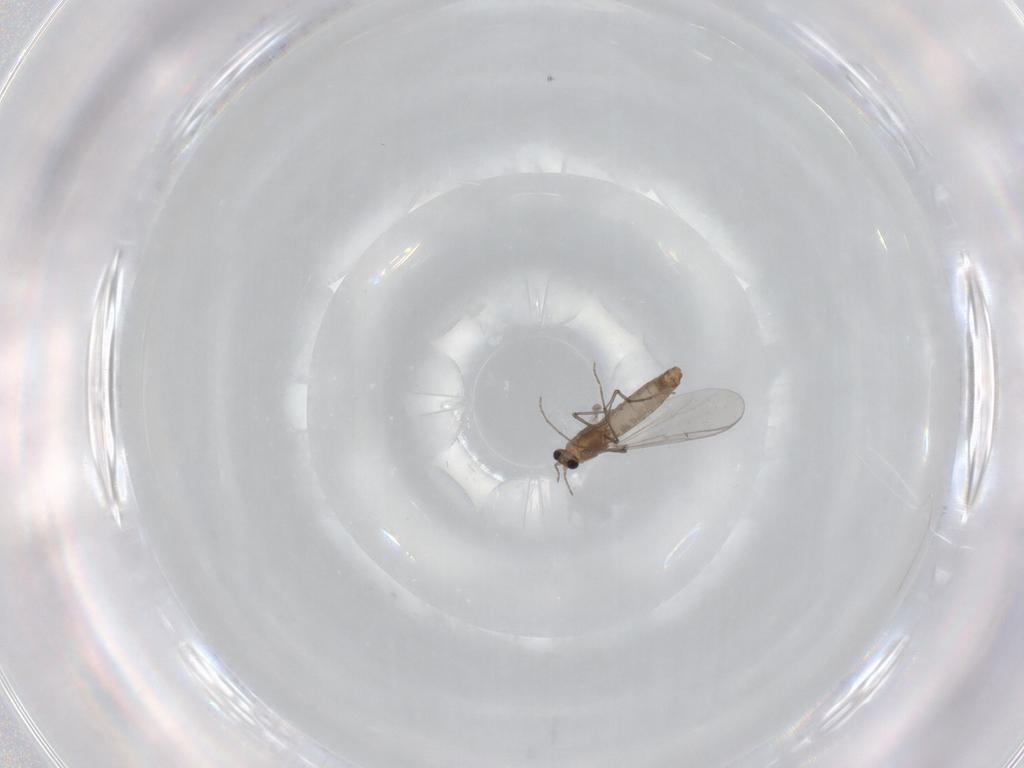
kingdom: Animalia
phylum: Arthropoda
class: Insecta
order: Diptera
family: Chironomidae
